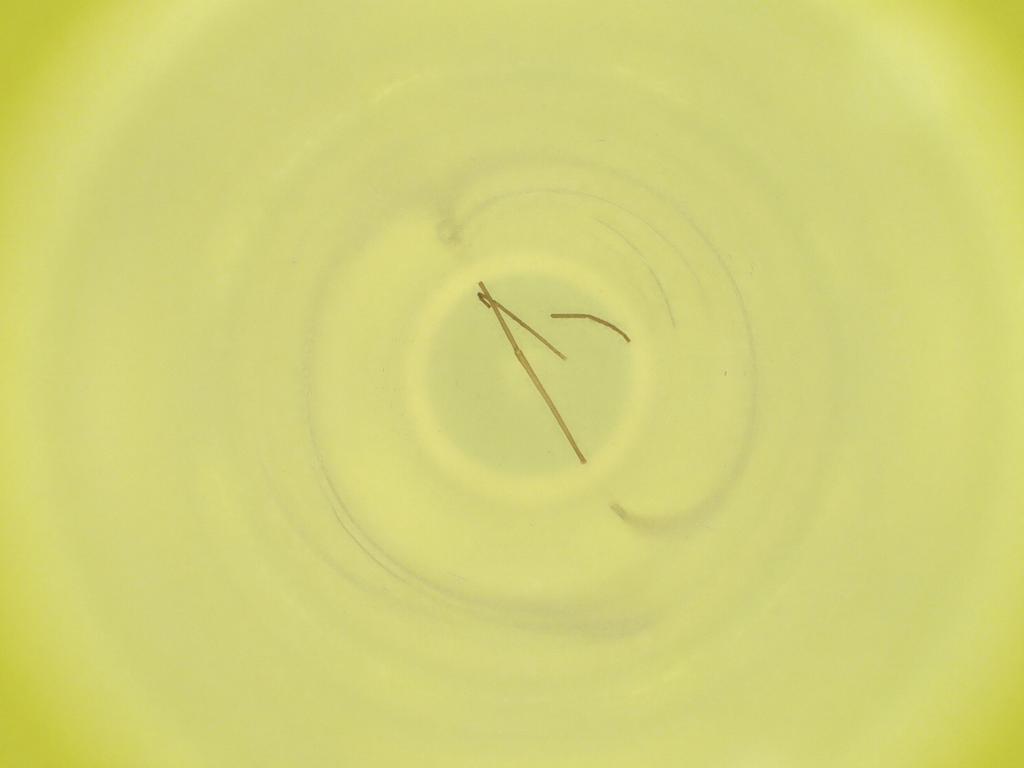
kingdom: Animalia
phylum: Arthropoda
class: Insecta
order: Diptera
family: Cecidomyiidae
